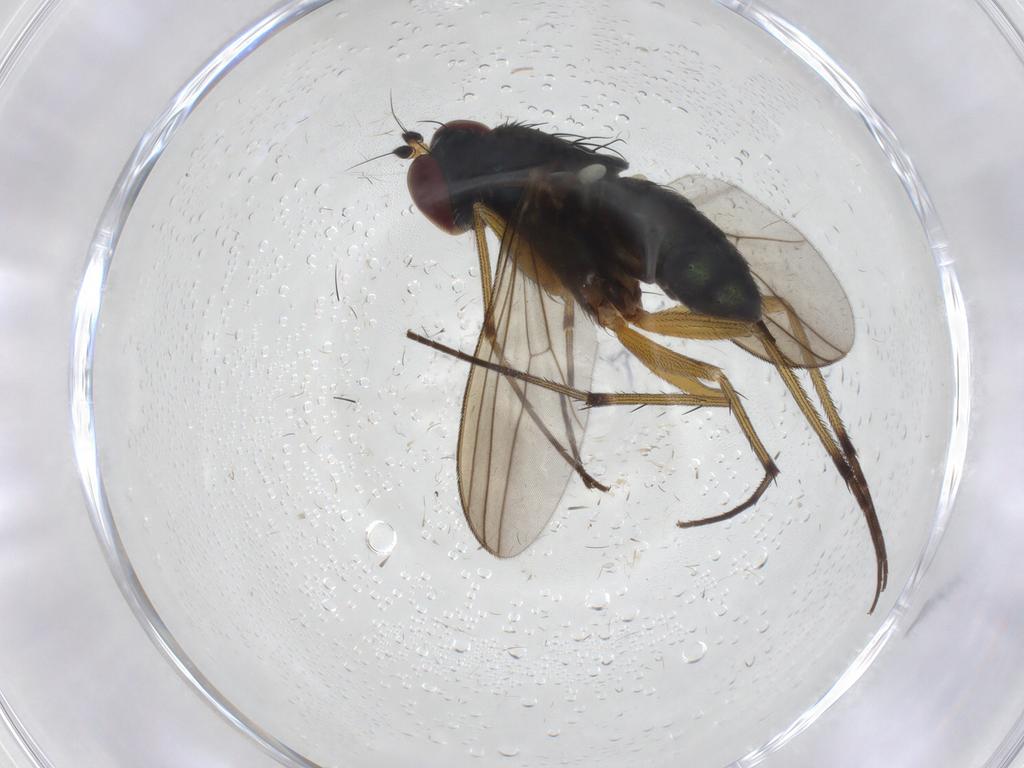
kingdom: Animalia
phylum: Arthropoda
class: Insecta
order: Diptera
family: Dolichopodidae
